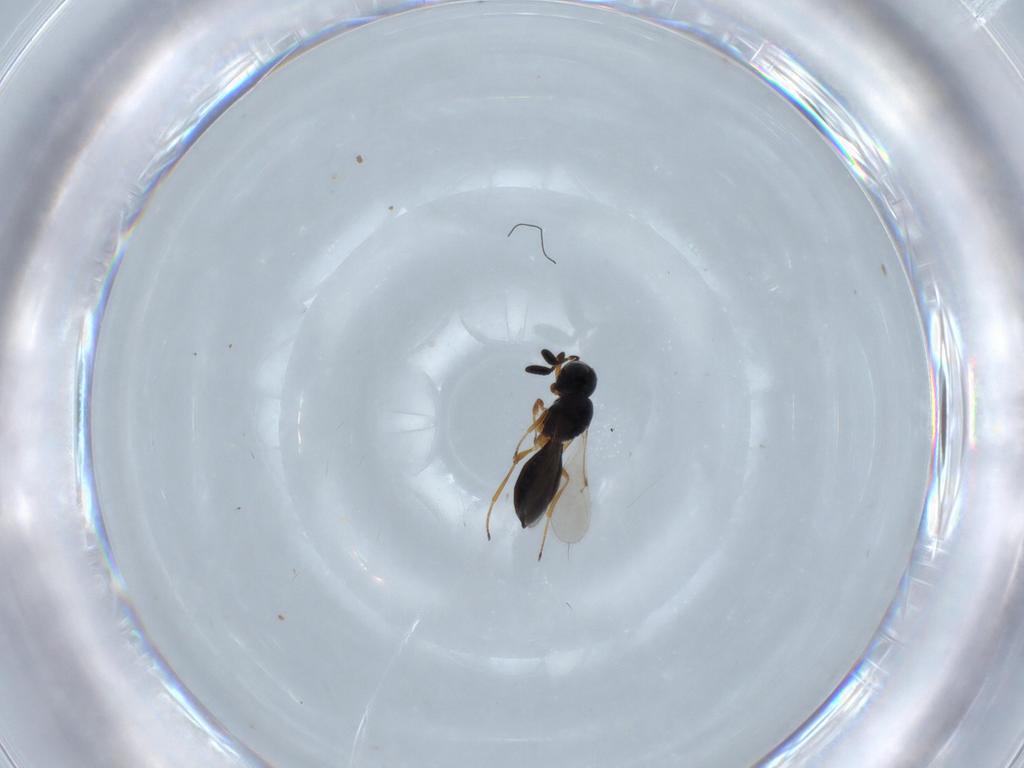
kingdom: Animalia
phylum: Arthropoda
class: Insecta
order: Hymenoptera
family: Scelionidae
